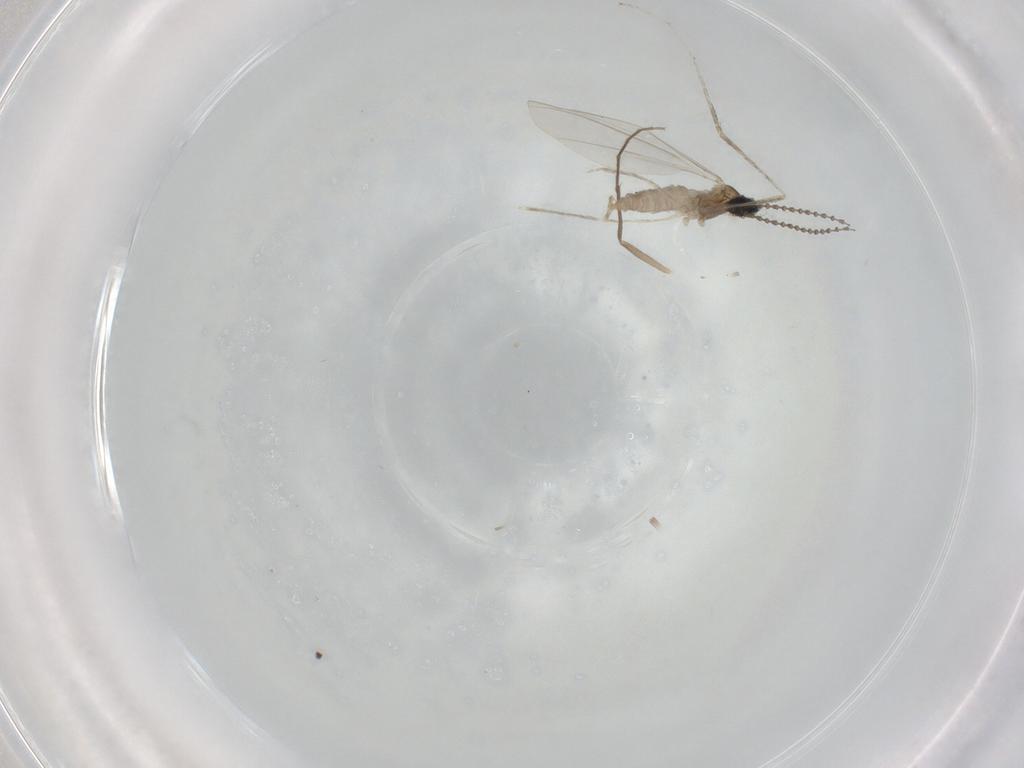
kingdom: Animalia
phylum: Arthropoda
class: Insecta
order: Diptera
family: Cecidomyiidae
